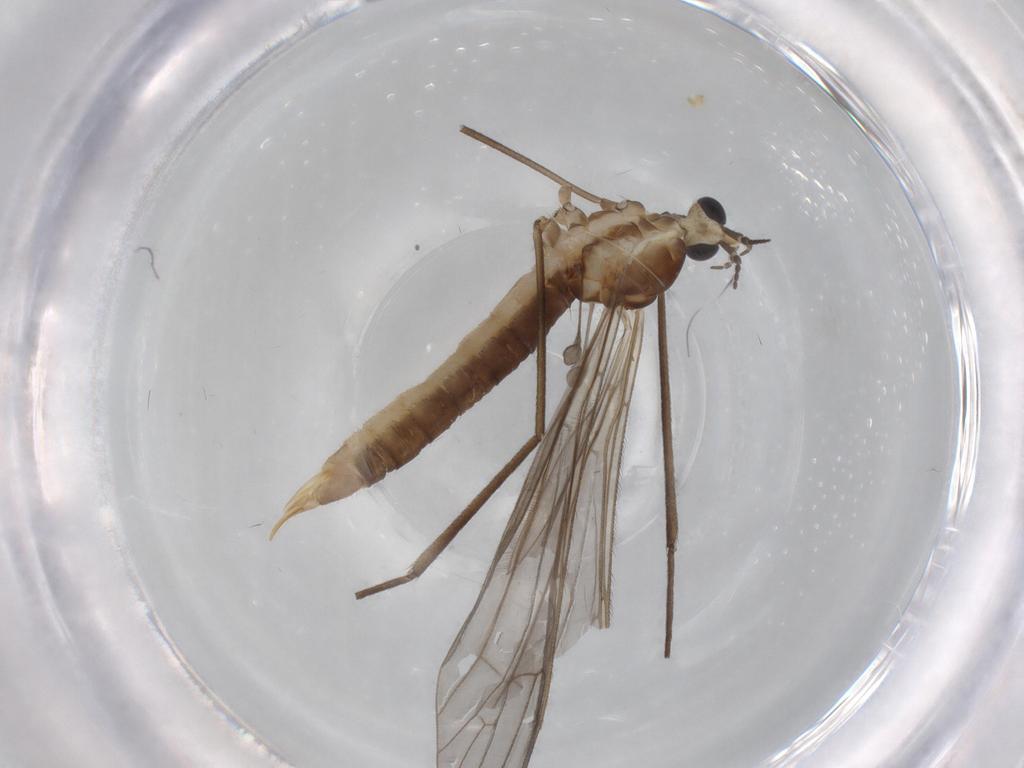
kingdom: Animalia
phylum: Arthropoda
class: Insecta
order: Diptera
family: Limoniidae
